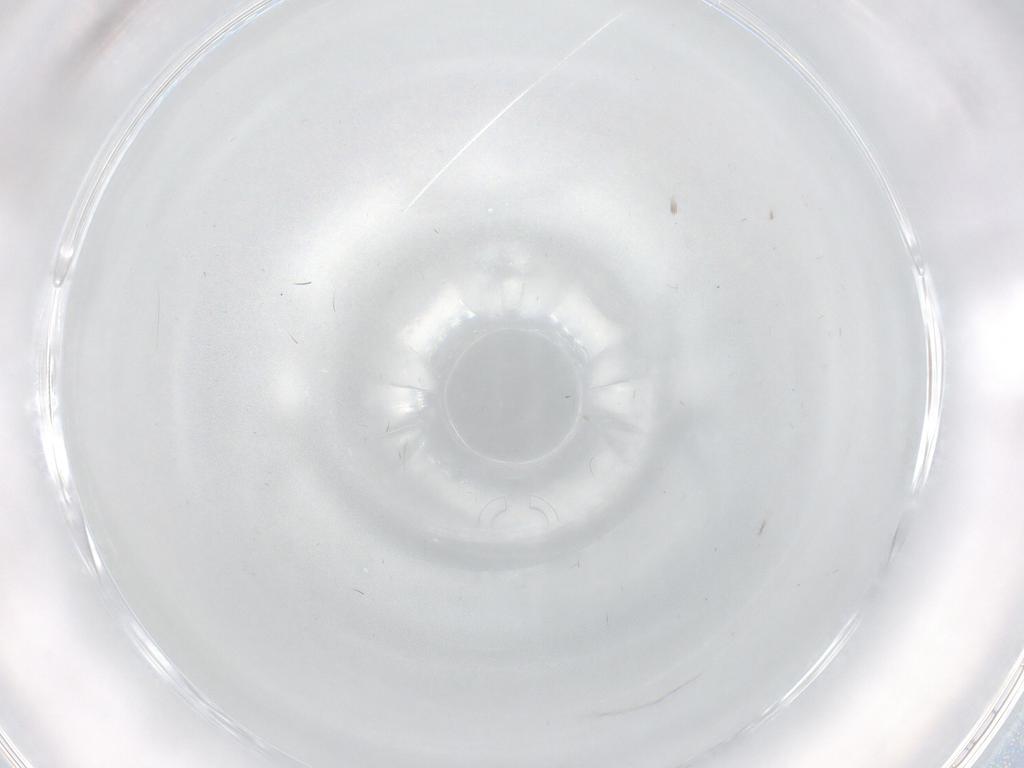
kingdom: Animalia
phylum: Arthropoda
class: Insecta
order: Diptera
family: Sciaridae
